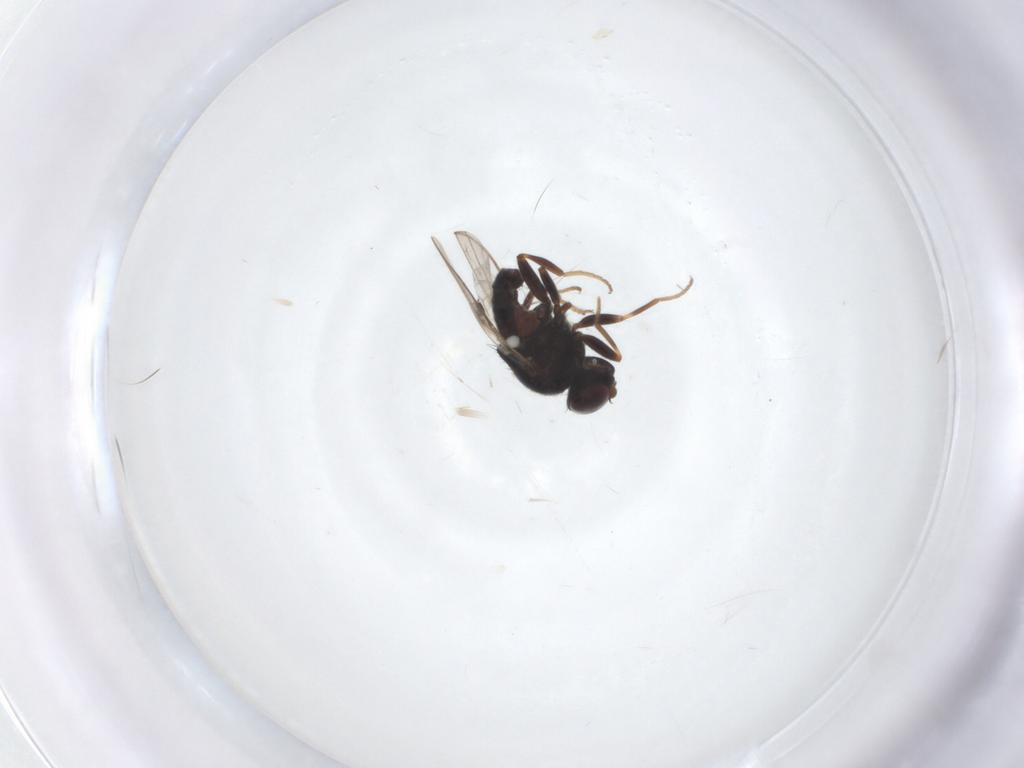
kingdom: Animalia
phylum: Arthropoda
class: Insecta
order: Diptera
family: Chloropidae
